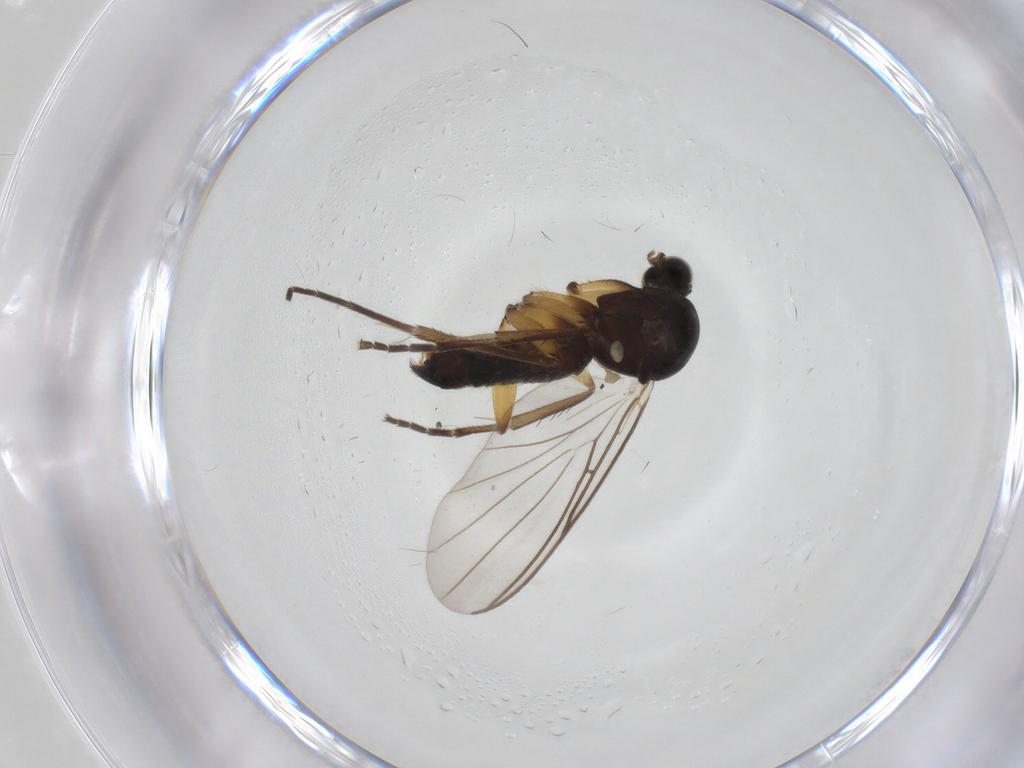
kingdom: Animalia
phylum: Arthropoda
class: Insecta
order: Diptera
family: Mycetophilidae
